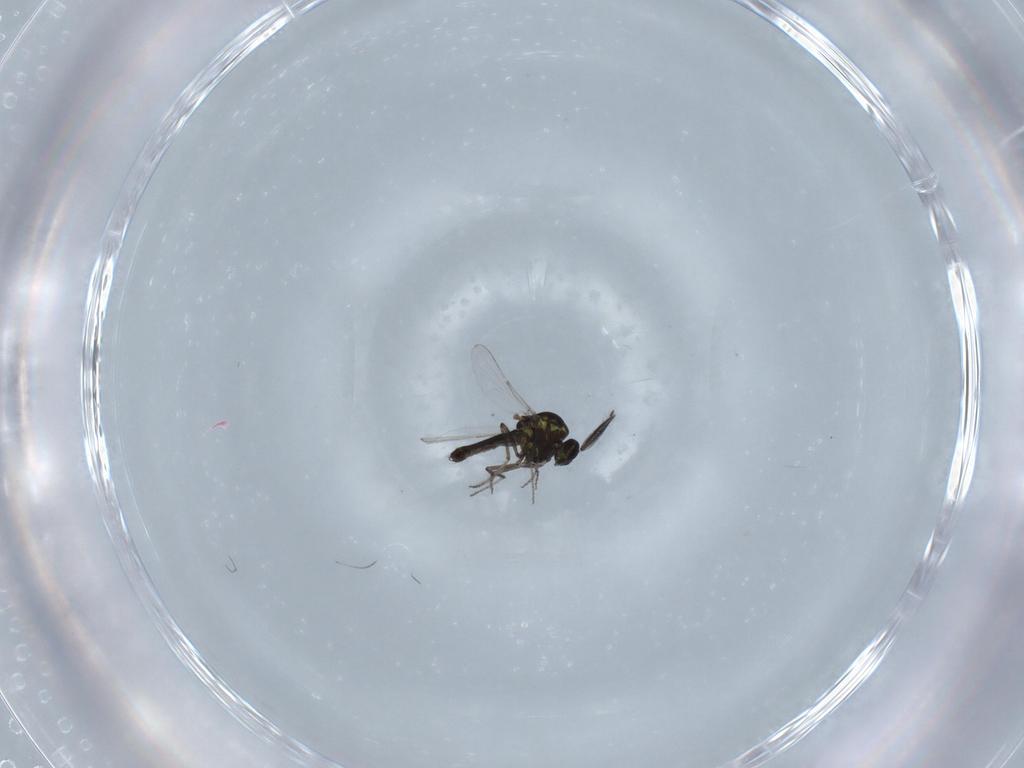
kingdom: Animalia
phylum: Arthropoda
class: Insecta
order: Diptera
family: Ceratopogonidae
